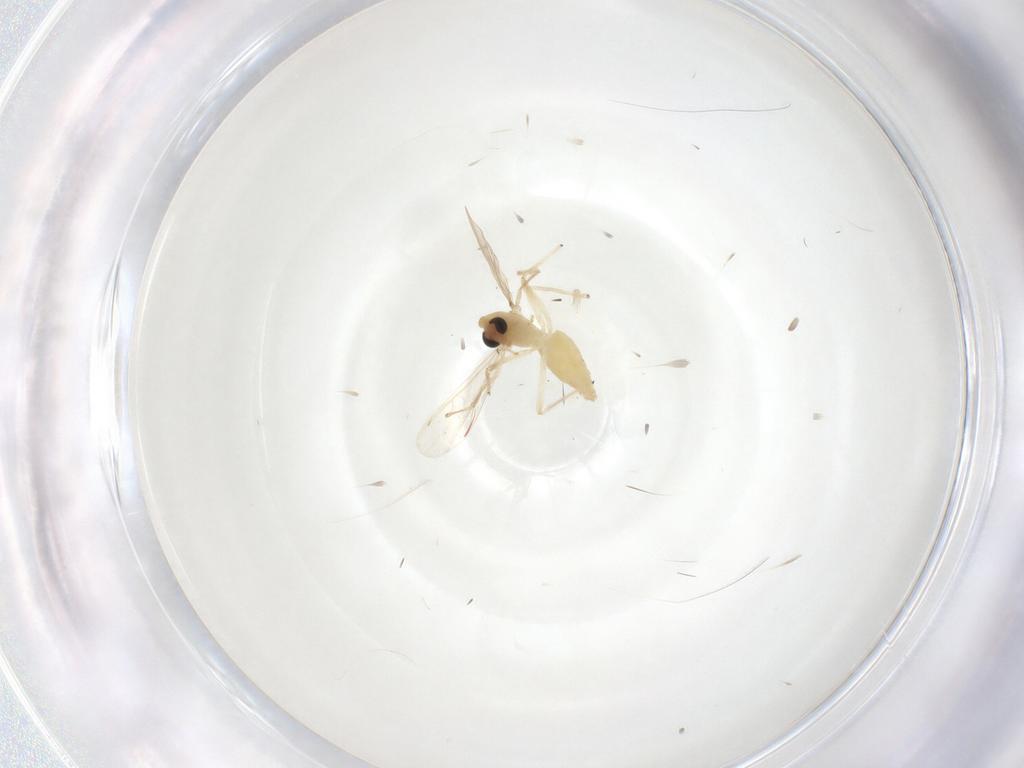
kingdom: Animalia
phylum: Arthropoda
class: Insecta
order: Diptera
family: Chironomidae
